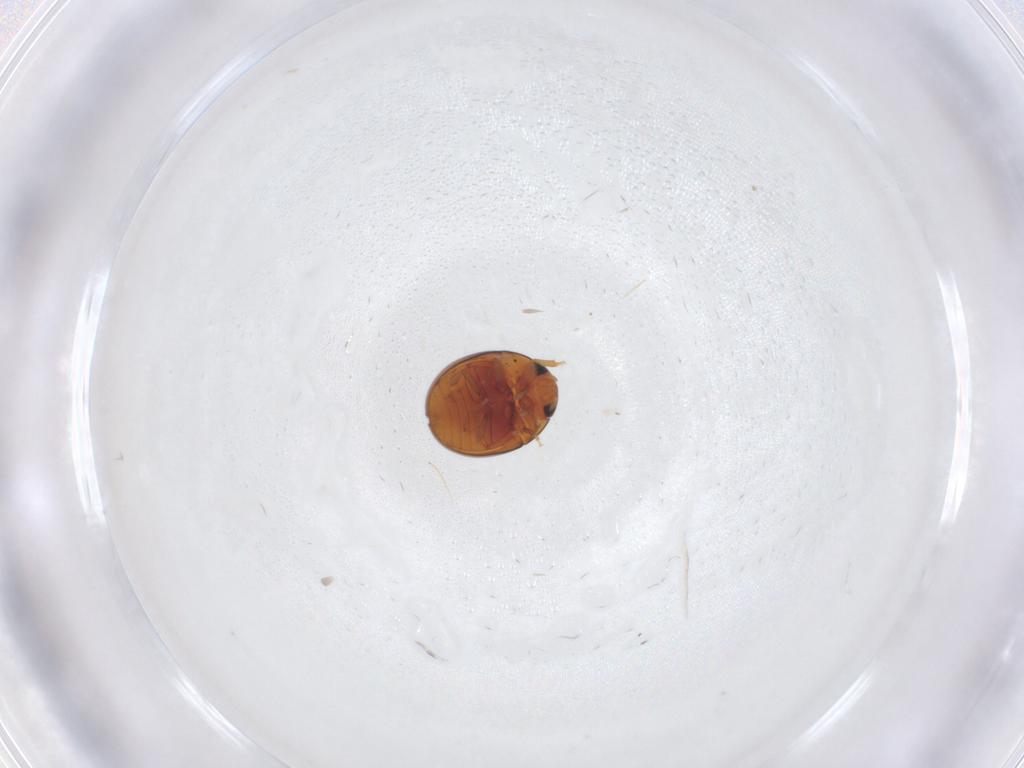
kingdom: Animalia
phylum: Arthropoda
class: Insecta
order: Coleoptera
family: Phalacridae
